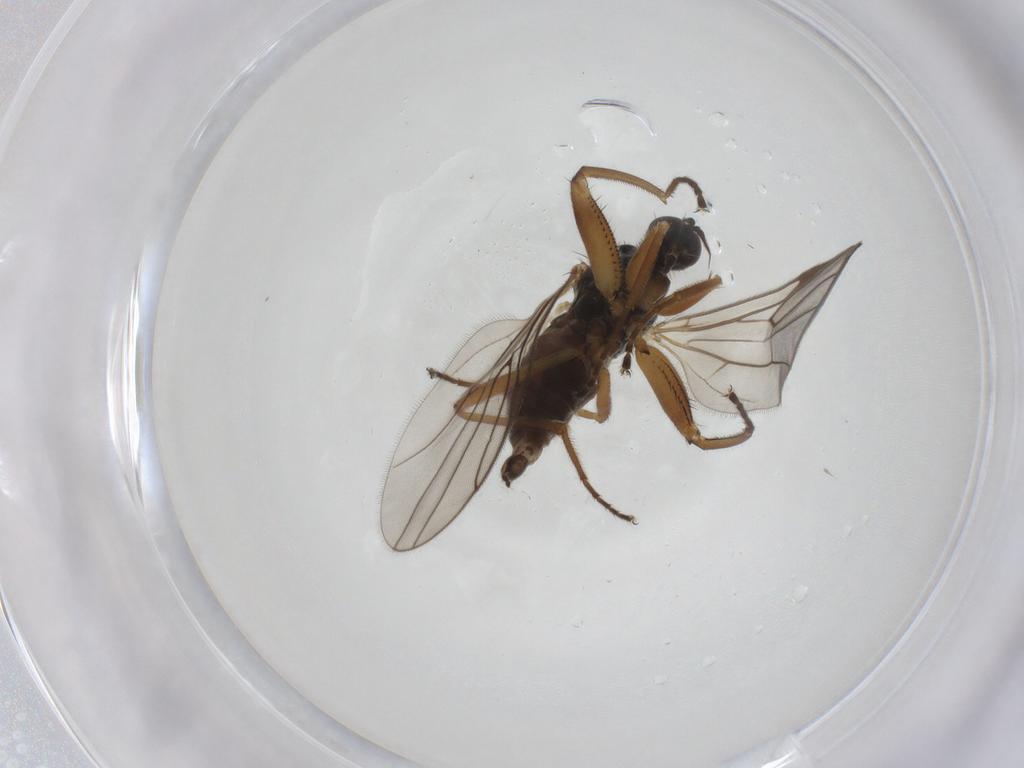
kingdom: Animalia
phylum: Arthropoda
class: Insecta
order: Diptera
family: Hybotidae
